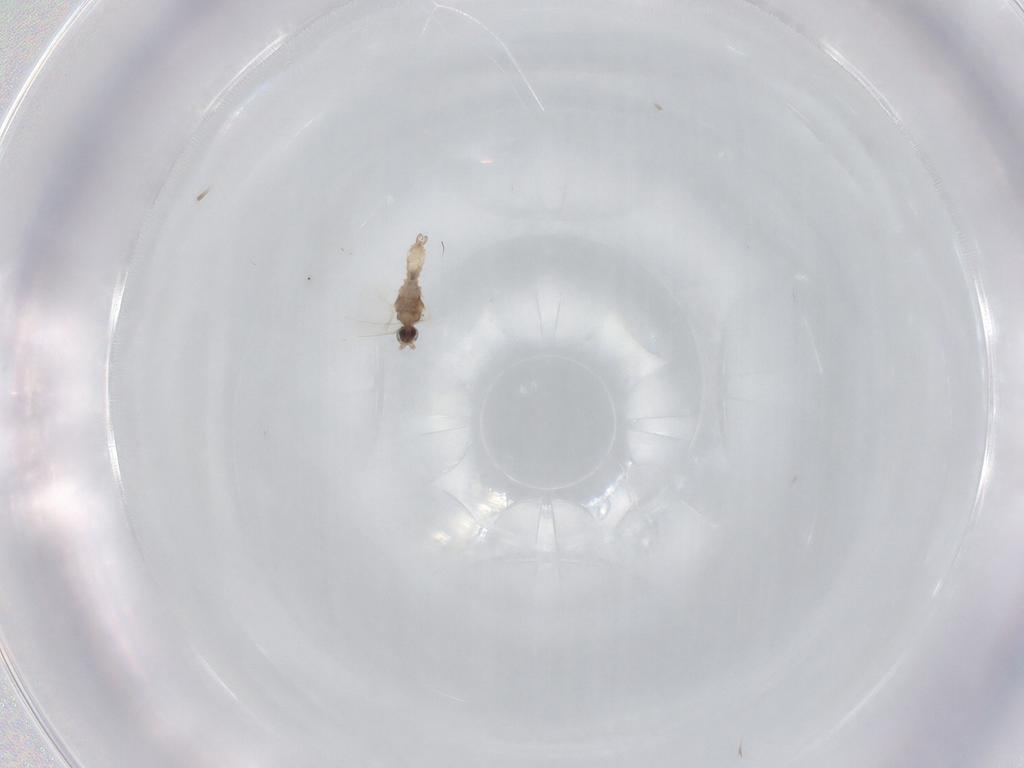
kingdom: Animalia
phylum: Arthropoda
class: Insecta
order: Diptera
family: Cecidomyiidae
